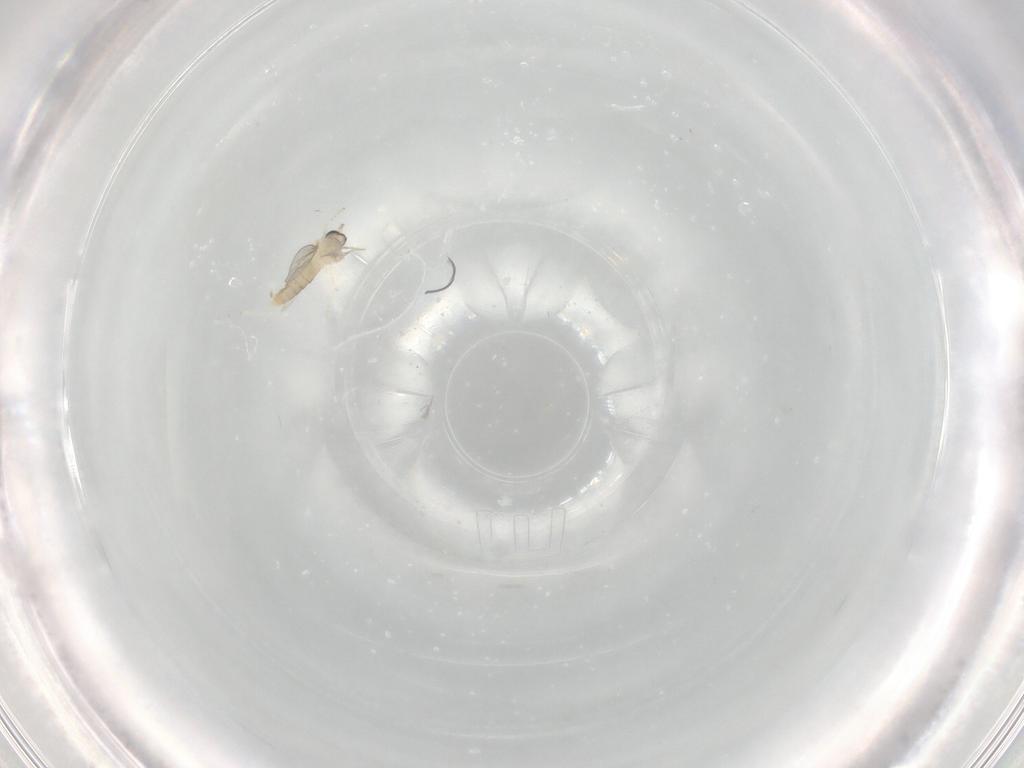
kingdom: Animalia
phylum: Arthropoda
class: Insecta
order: Diptera
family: Cecidomyiidae
